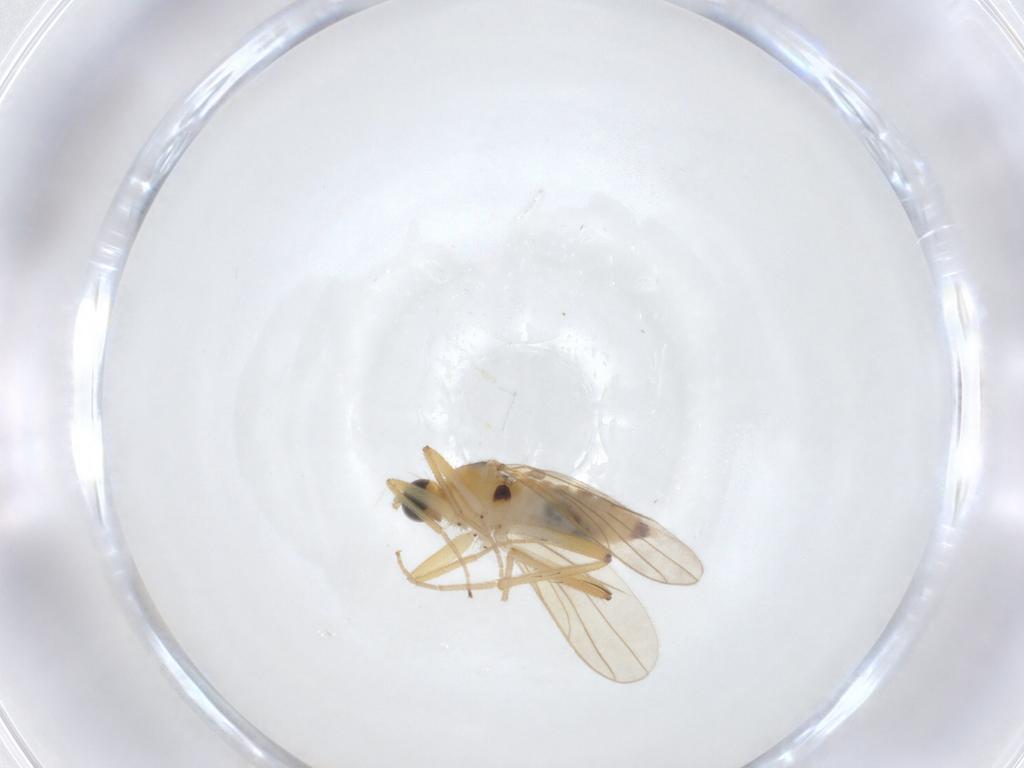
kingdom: Animalia
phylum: Arthropoda
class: Insecta
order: Diptera
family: Hybotidae
